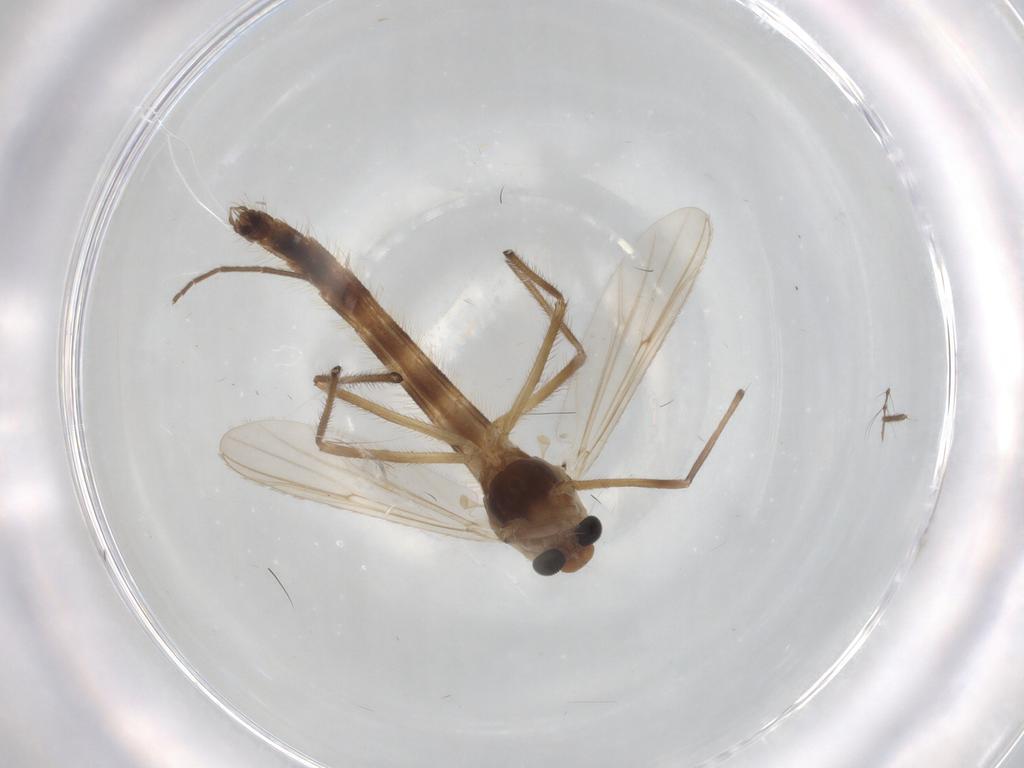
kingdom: Animalia
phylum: Arthropoda
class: Insecta
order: Diptera
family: Chironomidae
